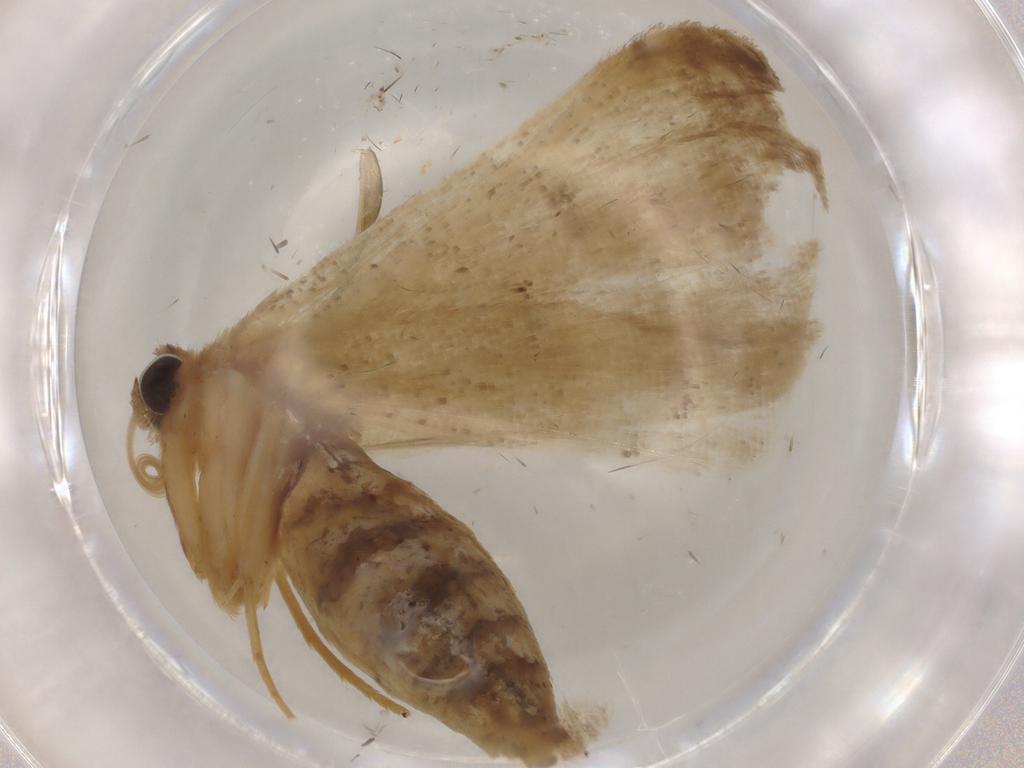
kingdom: Animalia
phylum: Arthropoda
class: Insecta
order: Lepidoptera
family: Geometridae
